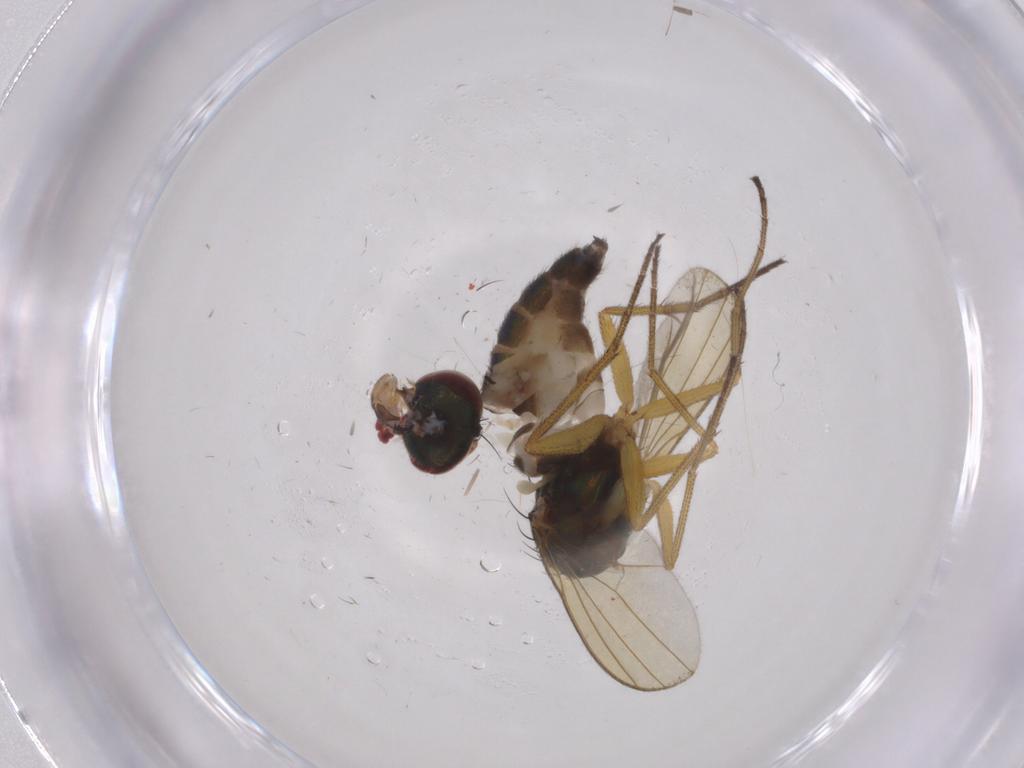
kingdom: Animalia
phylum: Arthropoda
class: Insecta
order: Diptera
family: Dolichopodidae
